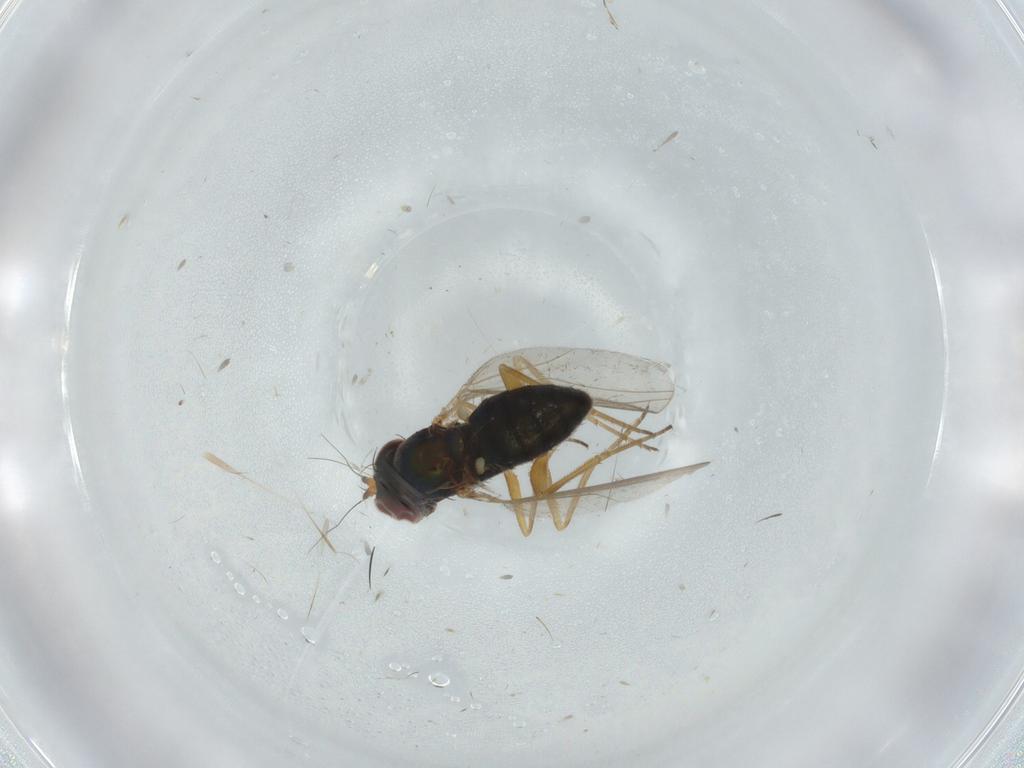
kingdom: Animalia
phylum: Arthropoda
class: Insecta
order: Diptera
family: Dolichopodidae
